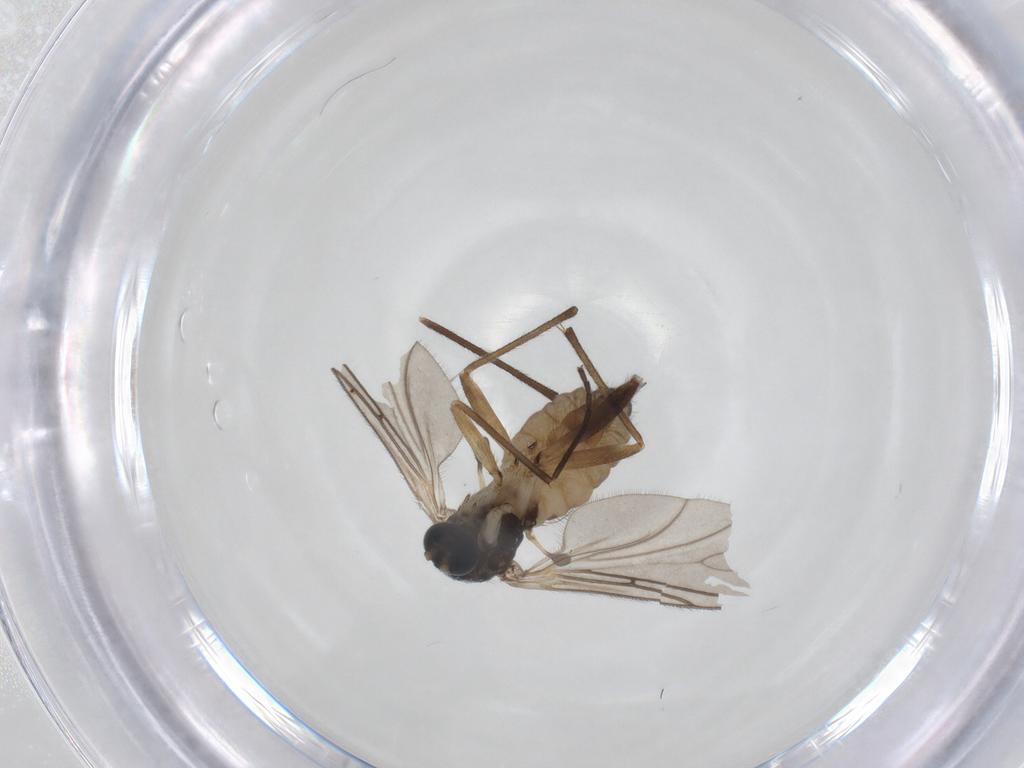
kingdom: Animalia
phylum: Arthropoda
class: Insecta
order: Diptera
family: Sciaridae
